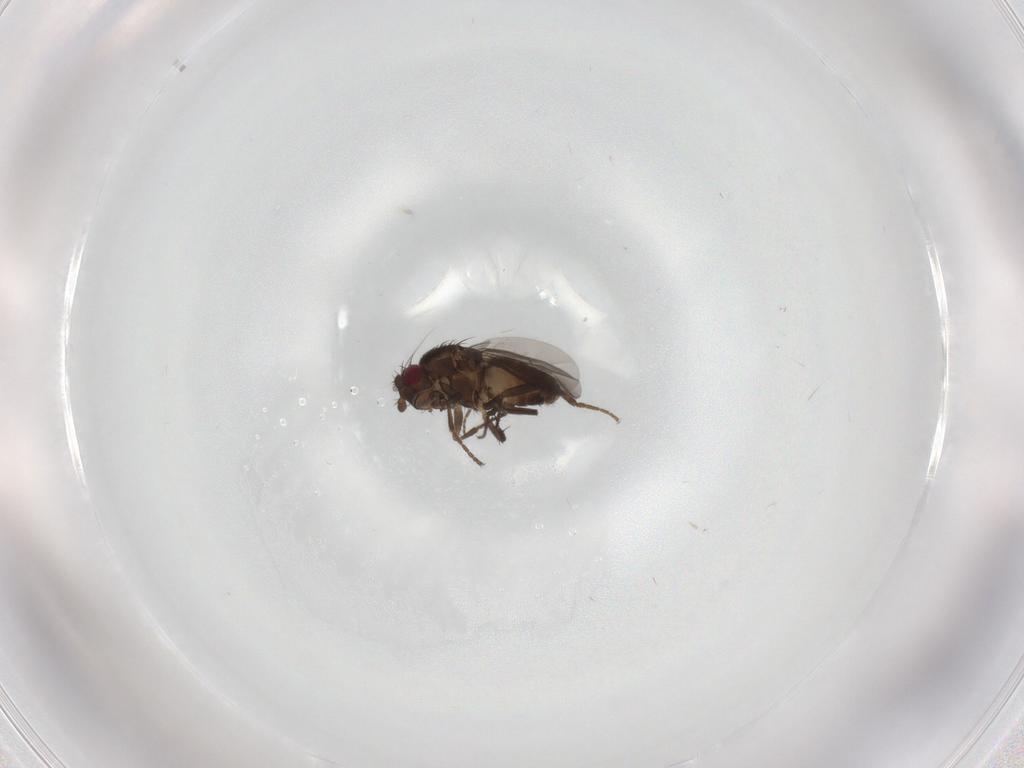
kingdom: Animalia
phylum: Arthropoda
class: Insecta
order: Diptera
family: Phoridae
